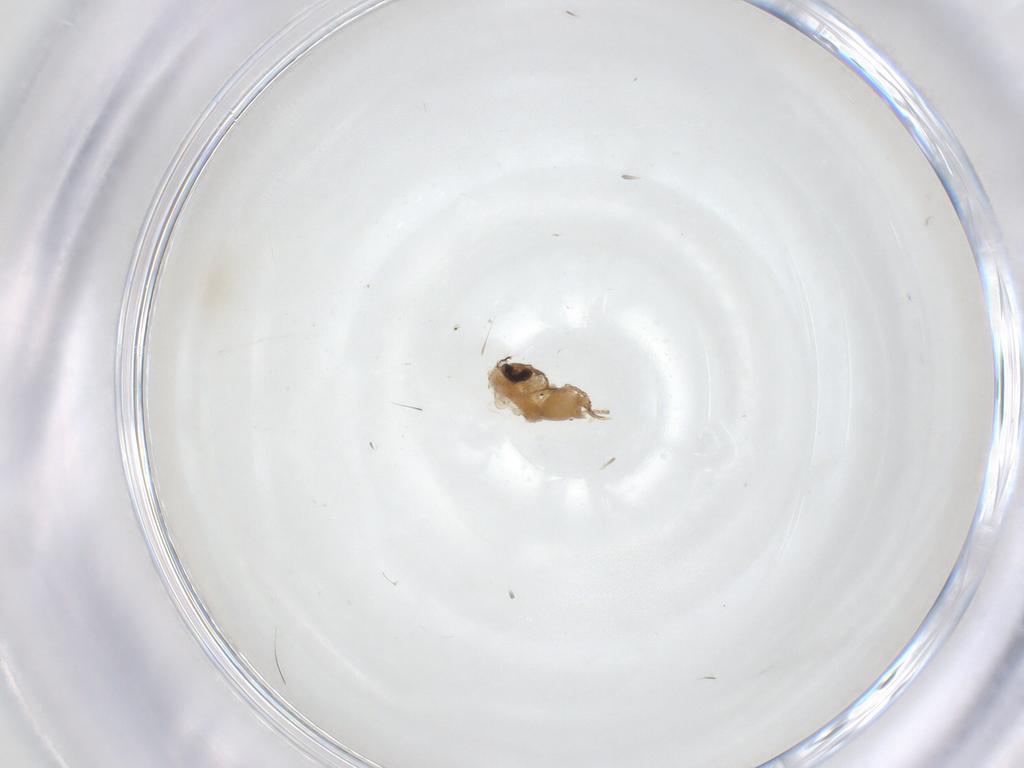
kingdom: Animalia
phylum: Arthropoda
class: Insecta
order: Diptera
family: Psychodidae
